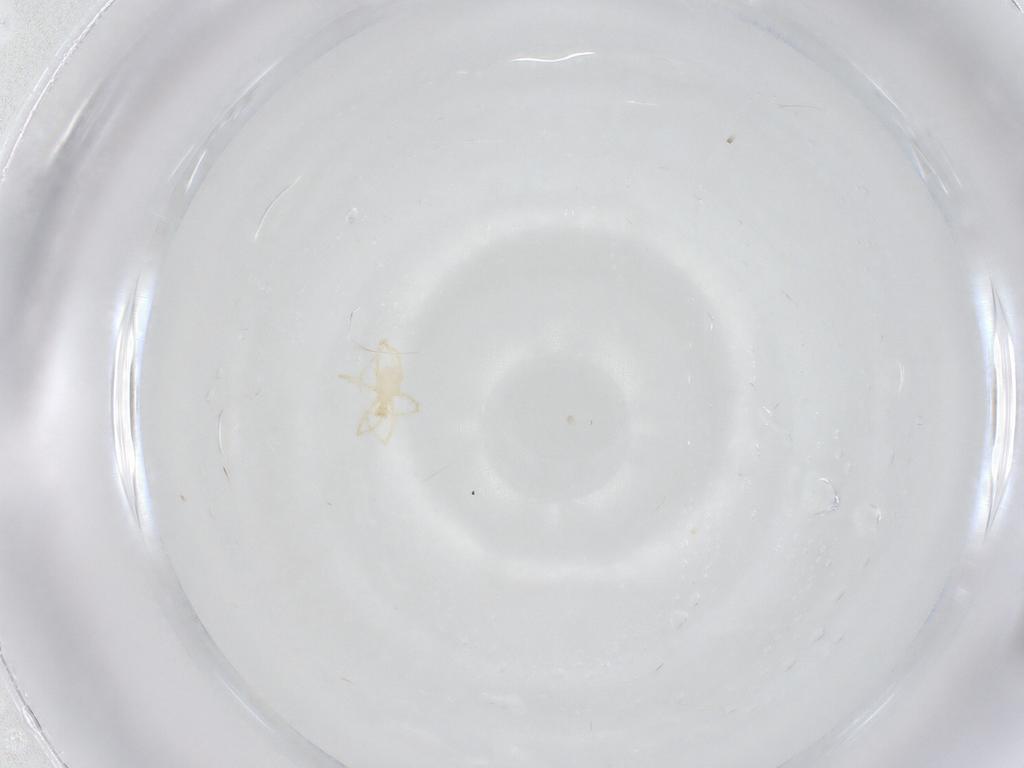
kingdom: Animalia
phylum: Arthropoda
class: Arachnida
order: Trombidiformes
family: Erythraeidae
